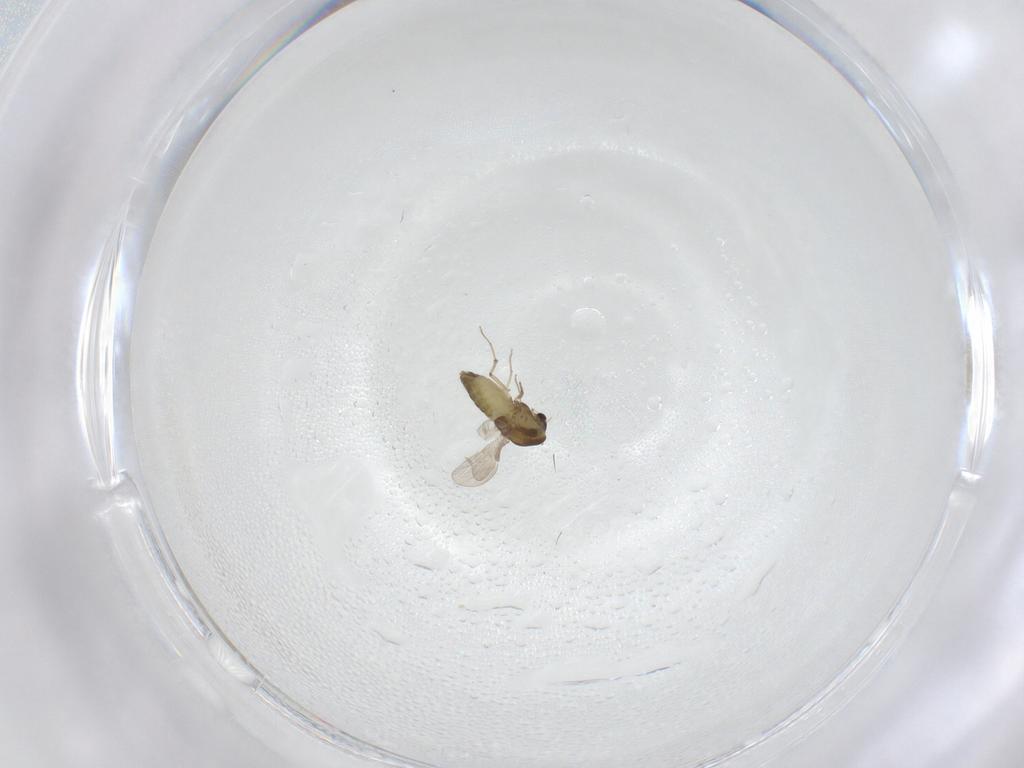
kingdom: Animalia
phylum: Arthropoda
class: Insecta
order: Diptera
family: Chironomidae
